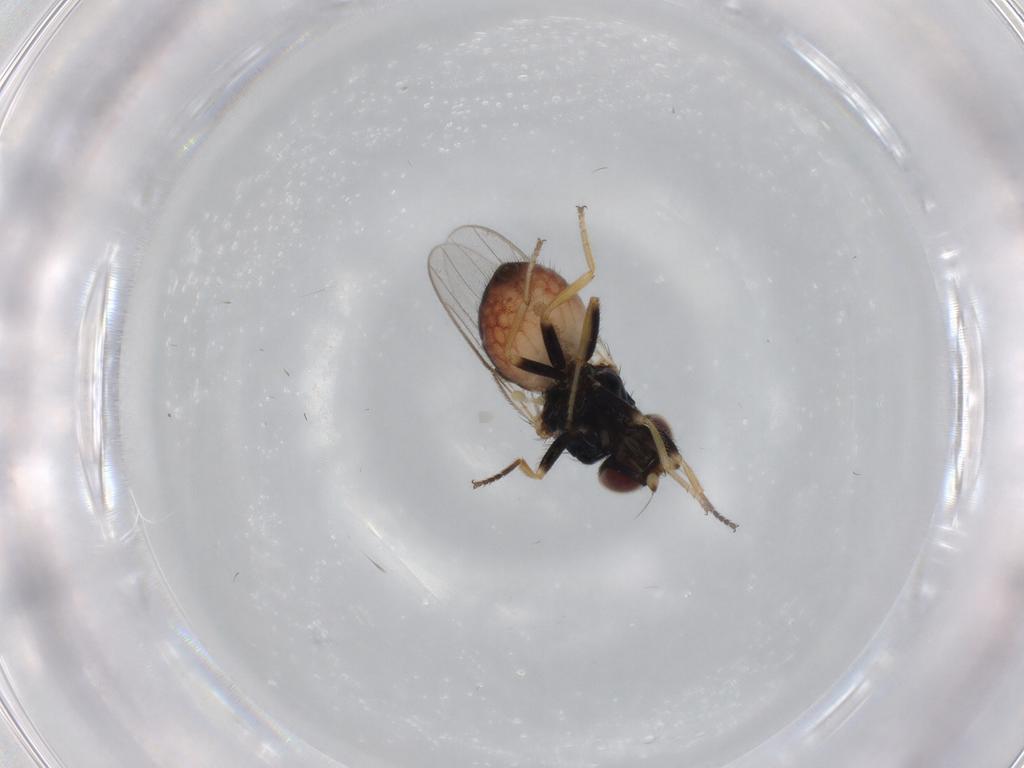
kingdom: Animalia
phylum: Arthropoda
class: Insecta
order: Diptera
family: Chloropidae
